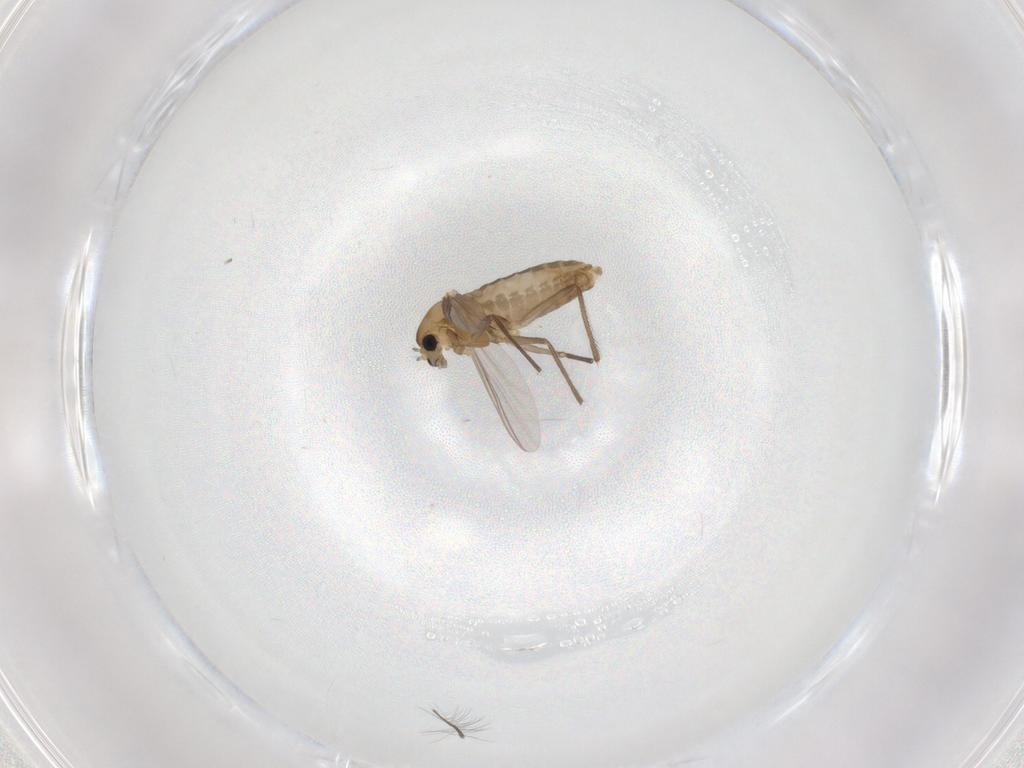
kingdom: Animalia
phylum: Arthropoda
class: Insecta
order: Diptera
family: Chironomidae
